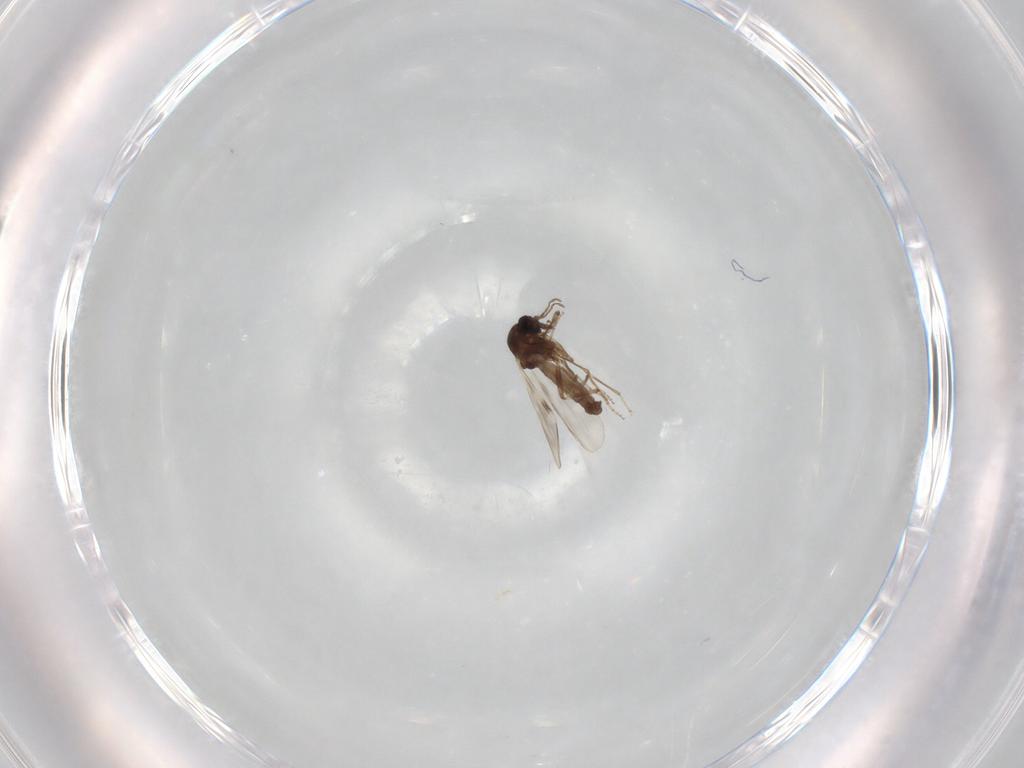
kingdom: Animalia
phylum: Arthropoda
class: Insecta
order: Diptera
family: Ceratopogonidae
